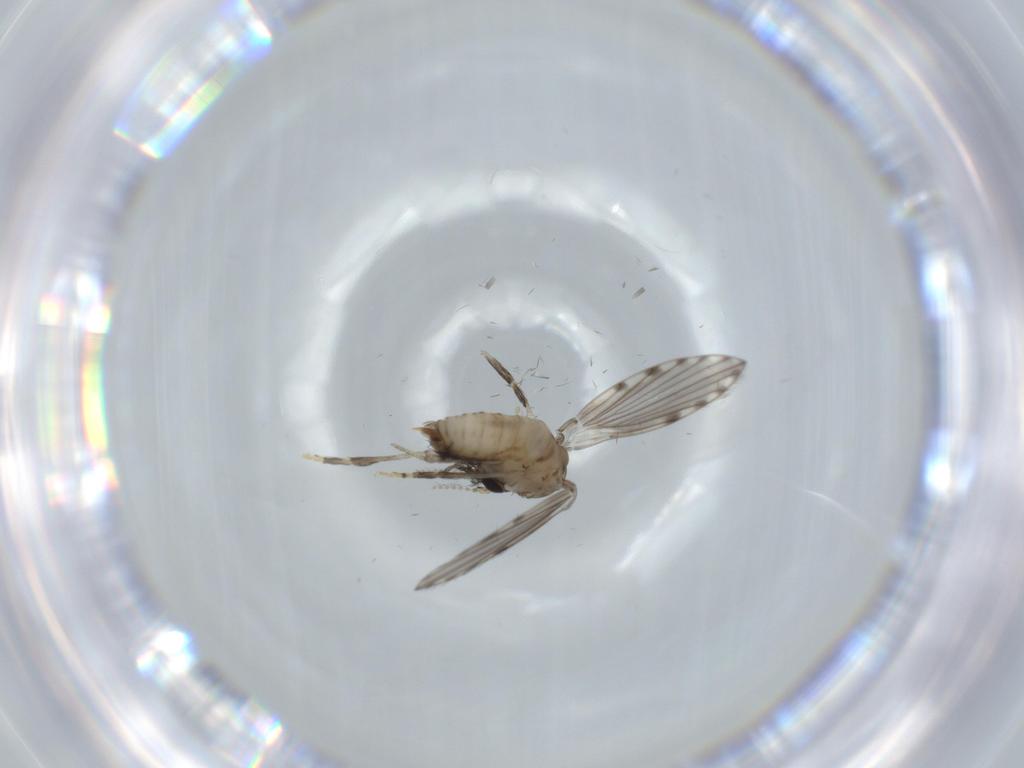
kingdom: Animalia
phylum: Arthropoda
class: Insecta
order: Diptera
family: Psychodidae
